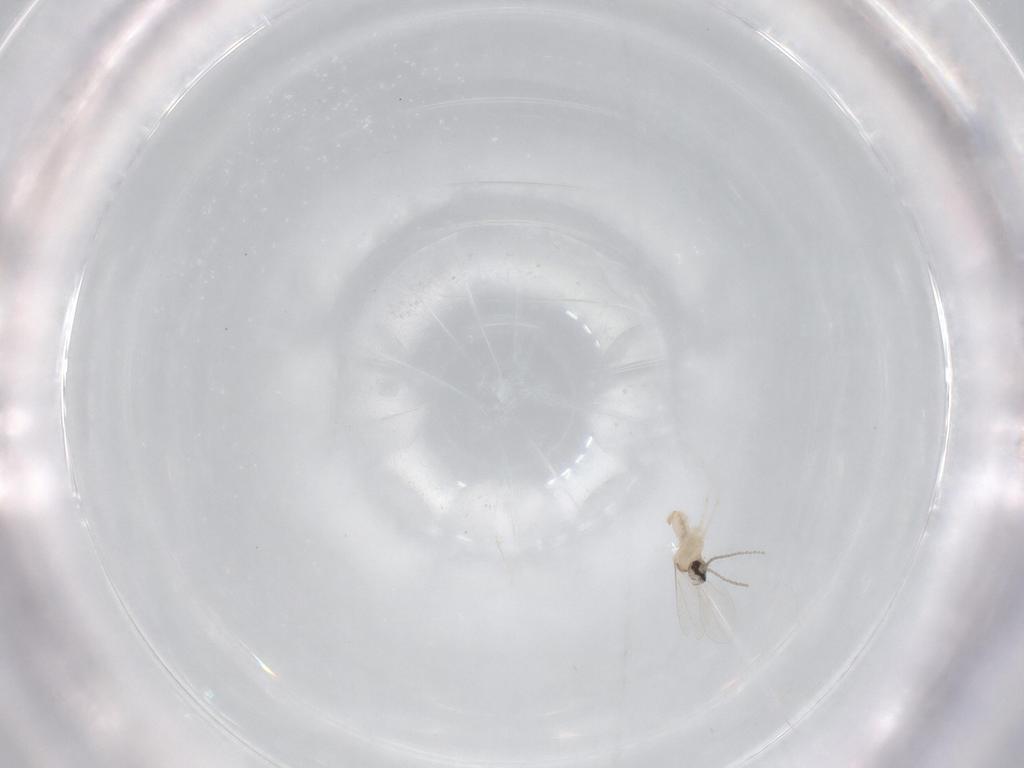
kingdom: Animalia
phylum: Arthropoda
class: Insecta
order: Diptera
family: Cecidomyiidae
